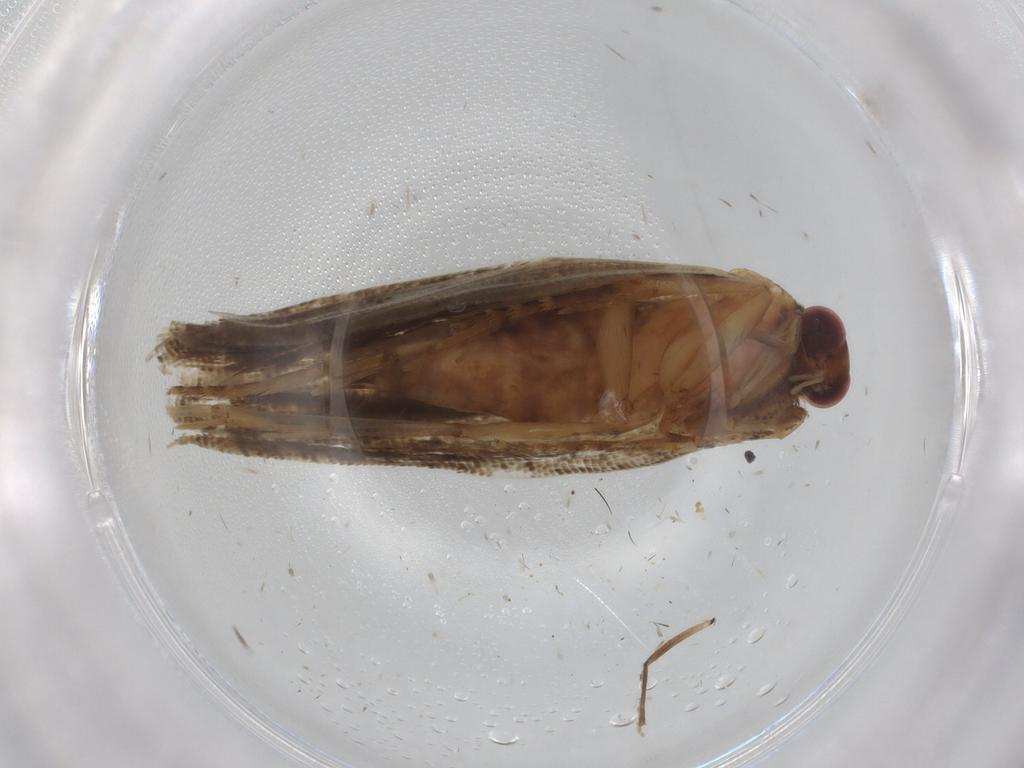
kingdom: Animalia
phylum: Arthropoda
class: Insecta
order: Lepidoptera
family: Tortricidae
